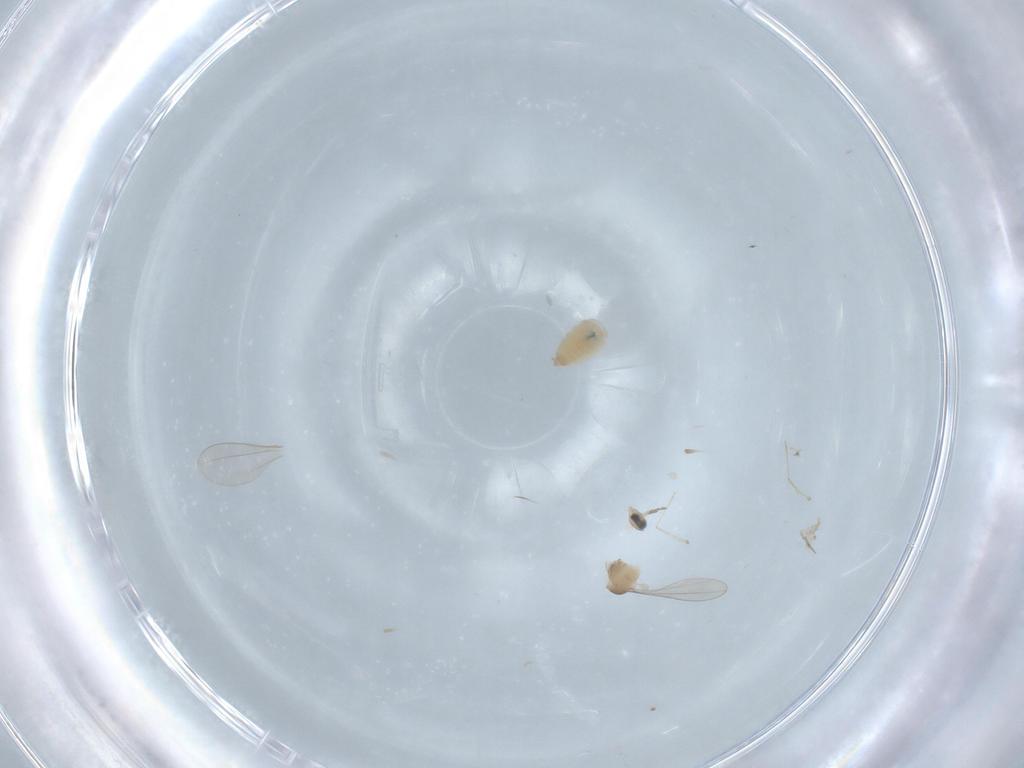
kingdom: Animalia
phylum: Arthropoda
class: Insecta
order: Diptera
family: Cecidomyiidae
